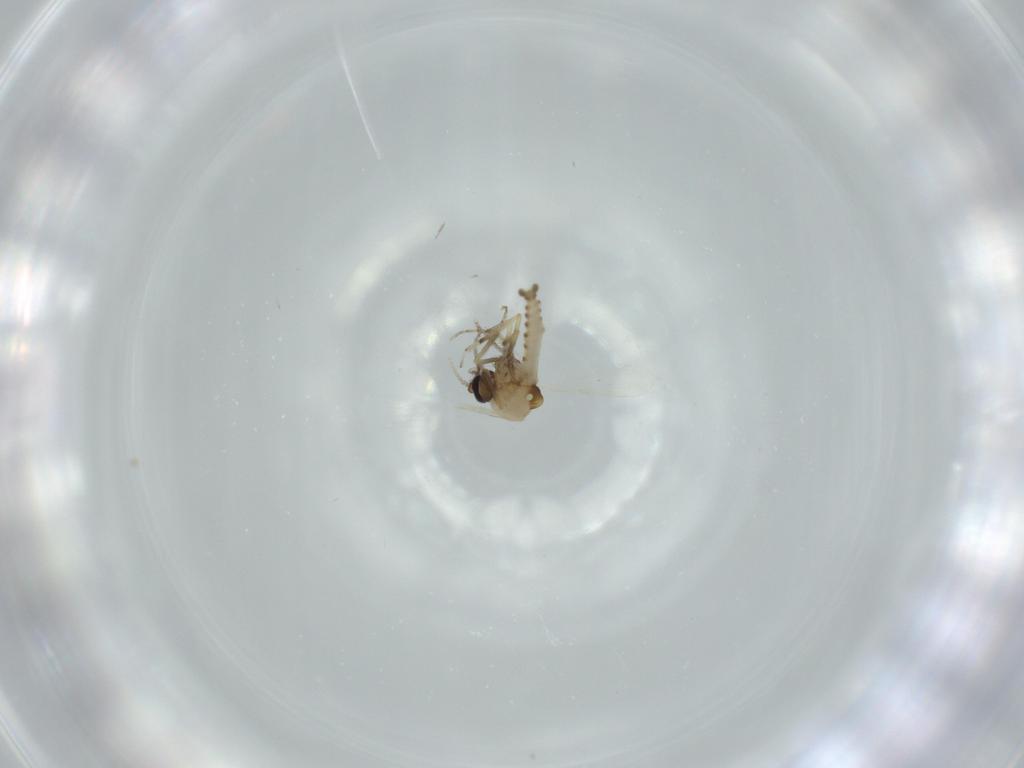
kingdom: Animalia
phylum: Arthropoda
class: Insecta
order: Diptera
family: Ceratopogonidae
